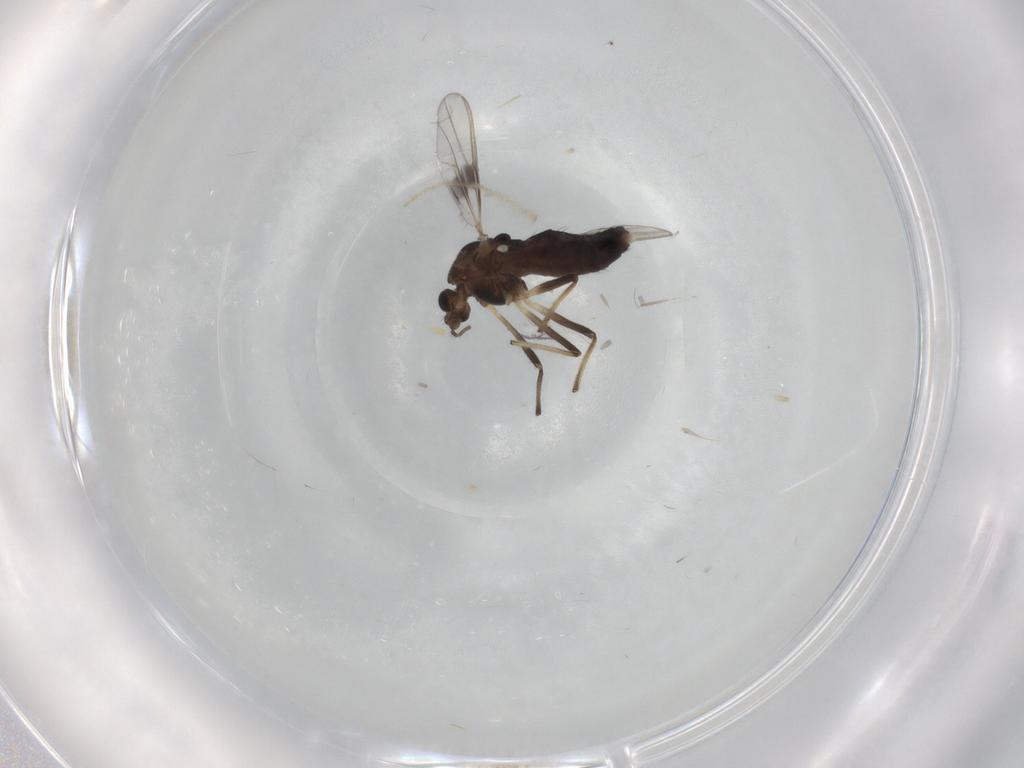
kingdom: Animalia
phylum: Arthropoda
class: Insecta
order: Diptera
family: Chironomidae
